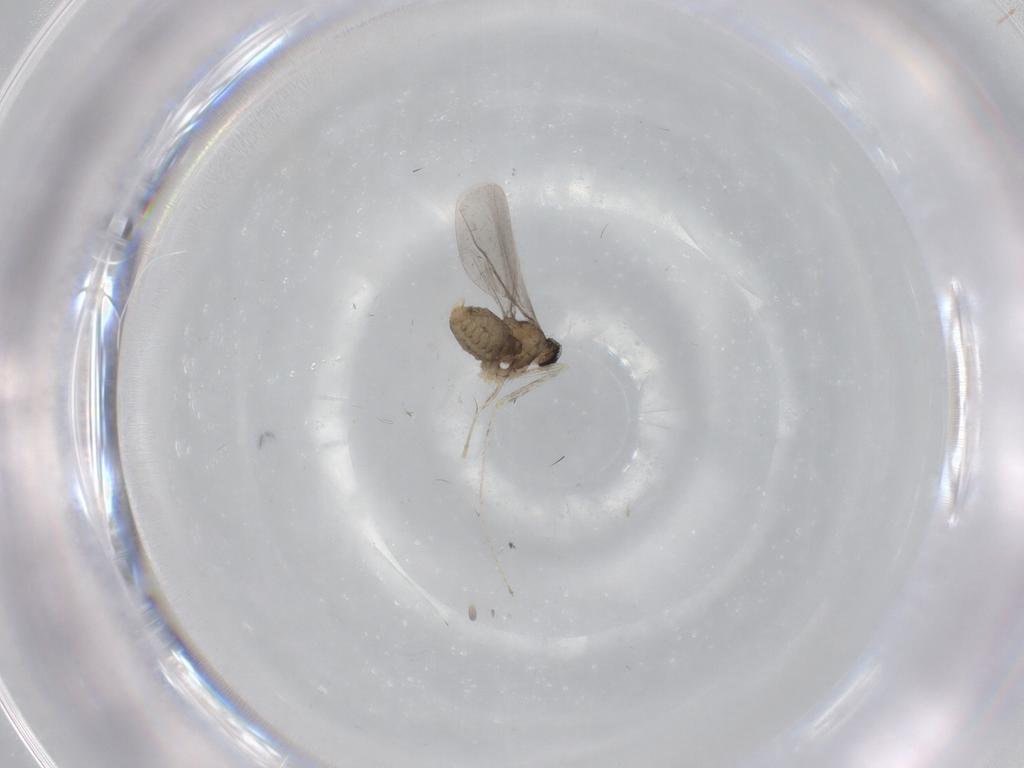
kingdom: Animalia
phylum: Arthropoda
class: Insecta
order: Diptera
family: Cecidomyiidae
